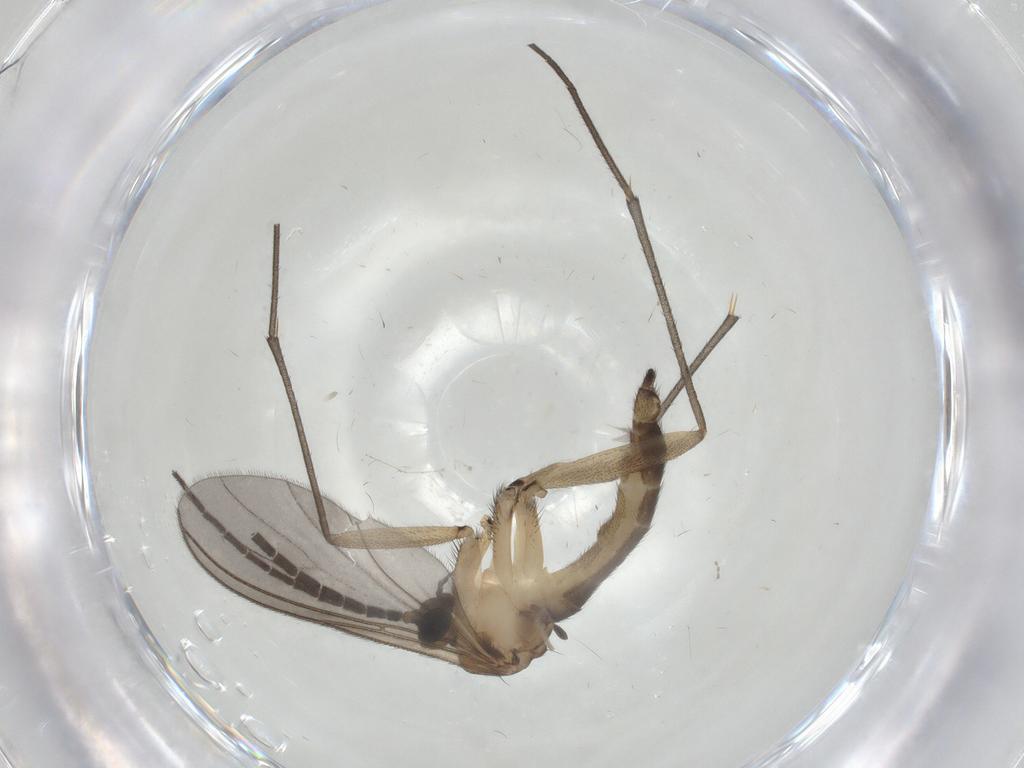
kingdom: Animalia
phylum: Arthropoda
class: Insecta
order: Diptera
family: Sciaridae
